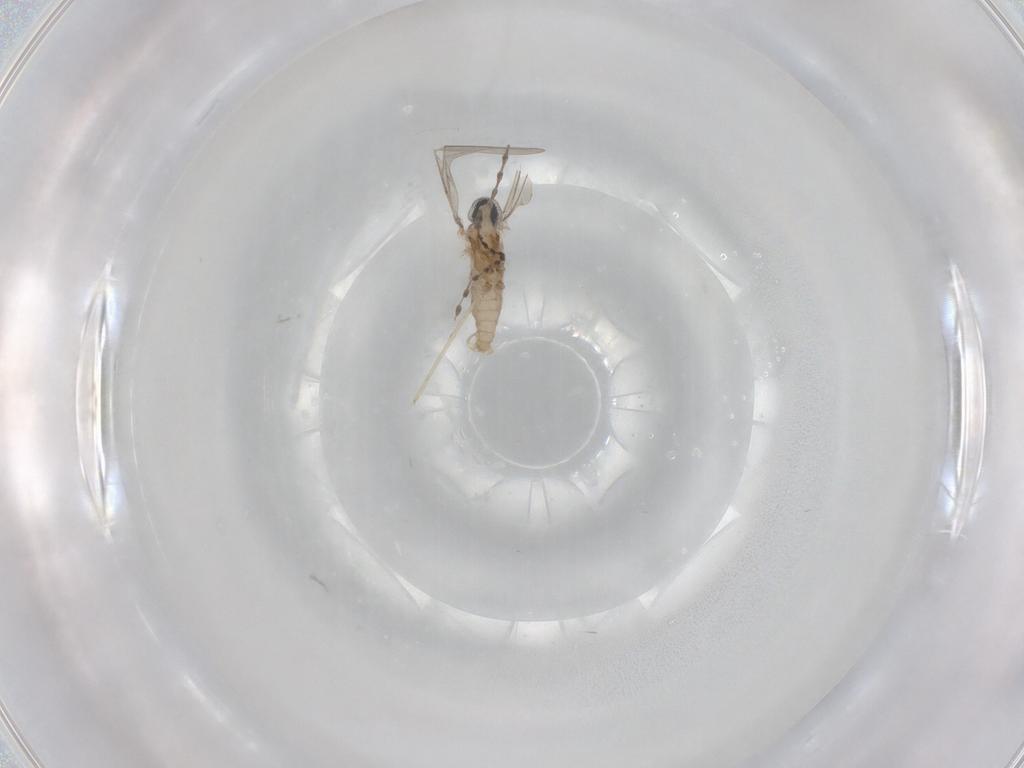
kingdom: Animalia
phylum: Arthropoda
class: Insecta
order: Diptera
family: Cecidomyiidae
